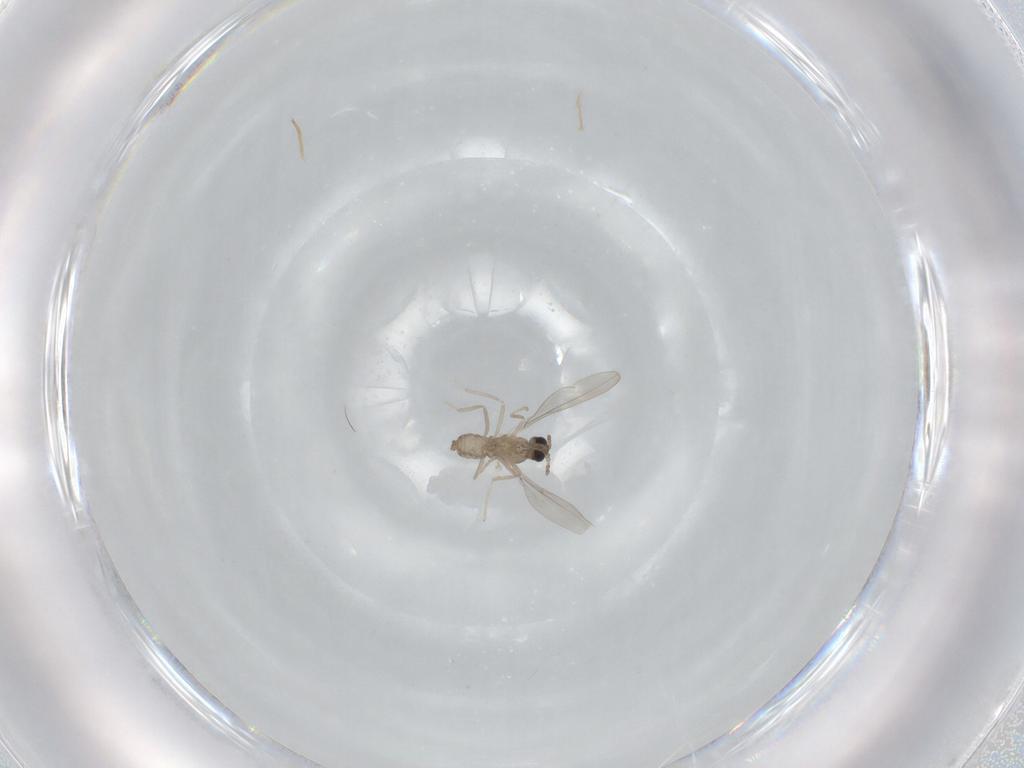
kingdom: Animalia
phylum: Arthropoda
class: Insecta
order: Diptera
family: Cecidomyiidae
